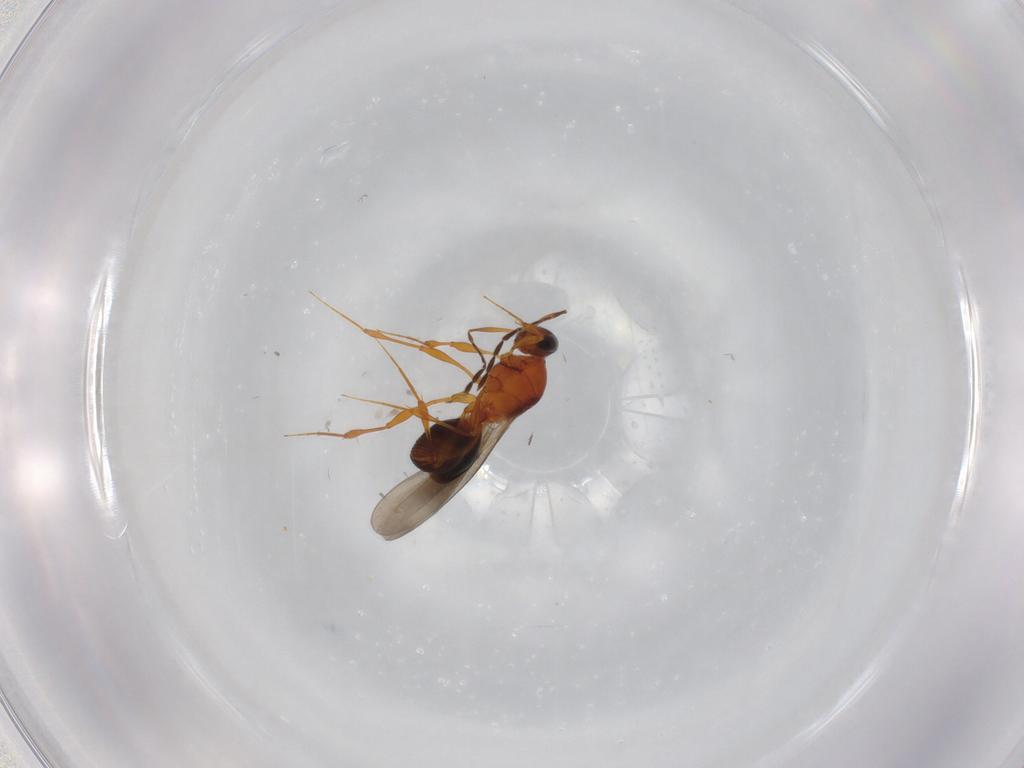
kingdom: Animalia
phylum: Arthropoda
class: Insecta
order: Hymenoptera
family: Platygastridae
